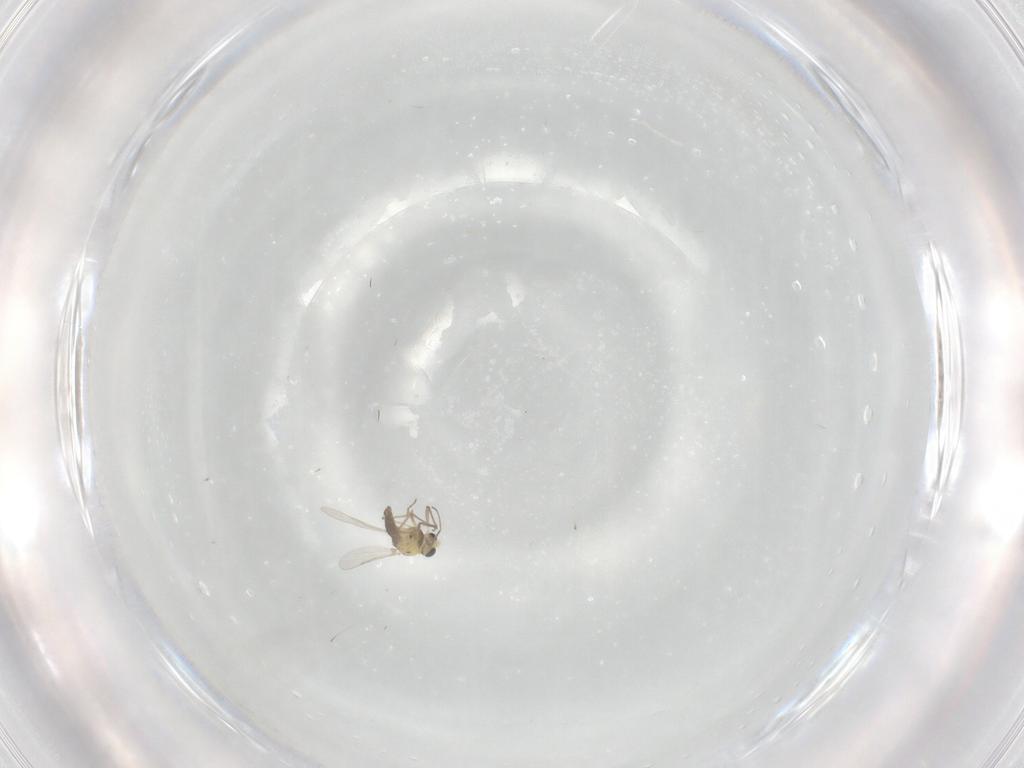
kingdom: Animalia
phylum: Arthropoda
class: Insecta
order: Diptera
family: Chironomidae
